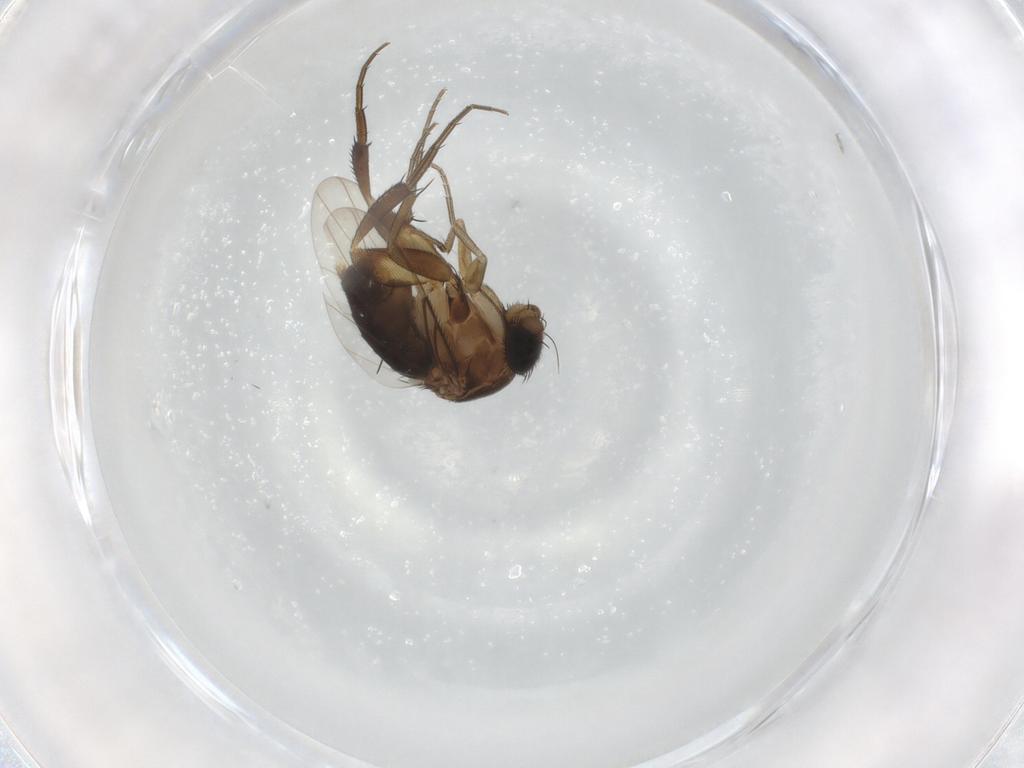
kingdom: Animalia
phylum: Arthropoda
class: Insecta
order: Diptera
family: Phoridae
